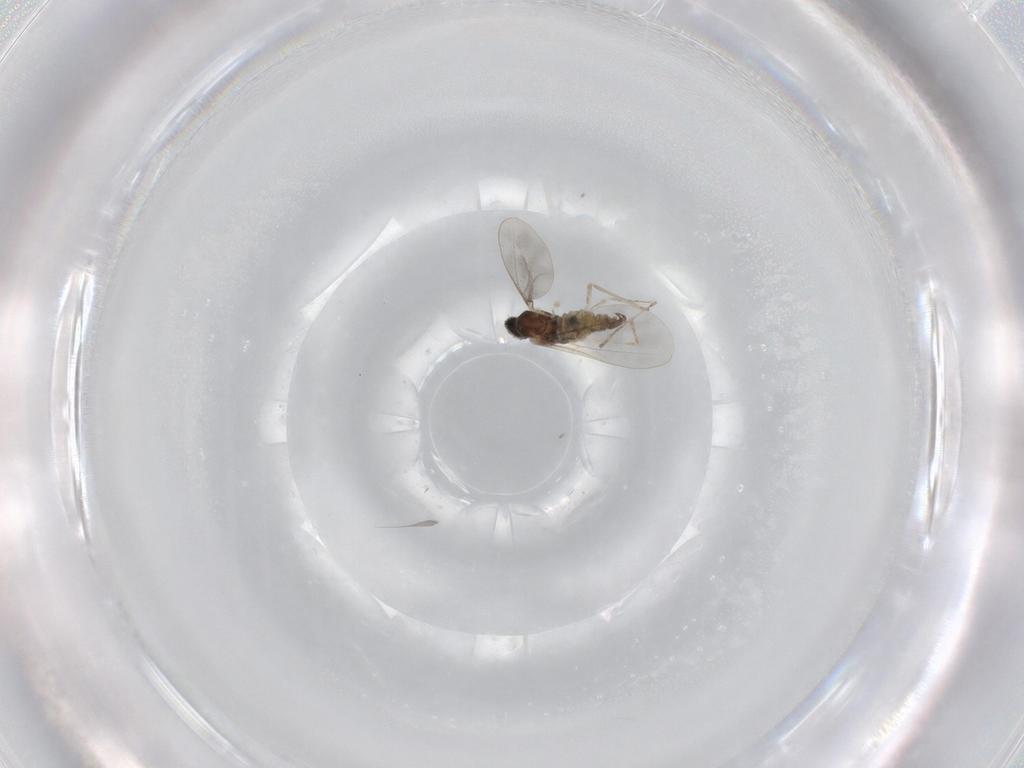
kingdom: Animalia
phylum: Arthropoda
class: Insecta
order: Diptera
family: Cecidomyiidae
